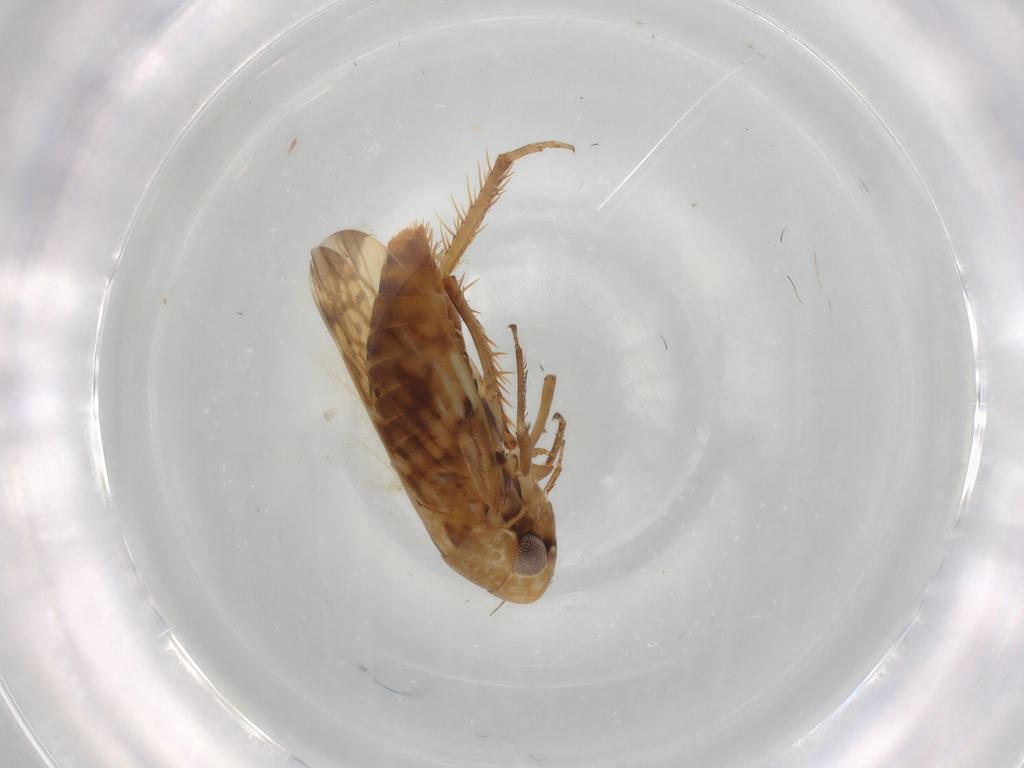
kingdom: Animalia
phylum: Arthropoda
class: Insecta
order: Hemiptera
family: Cicadellidae
